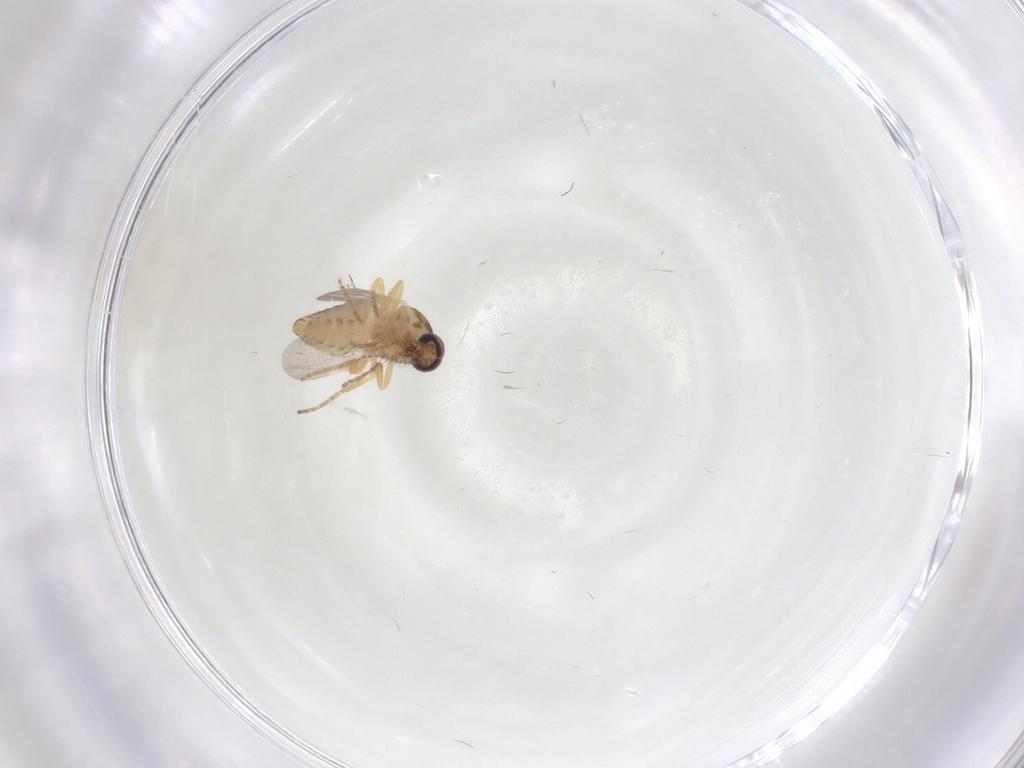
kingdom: Animalia
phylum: Arthropoda
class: Insecta
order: Diptera
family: Ceratopogonidae
